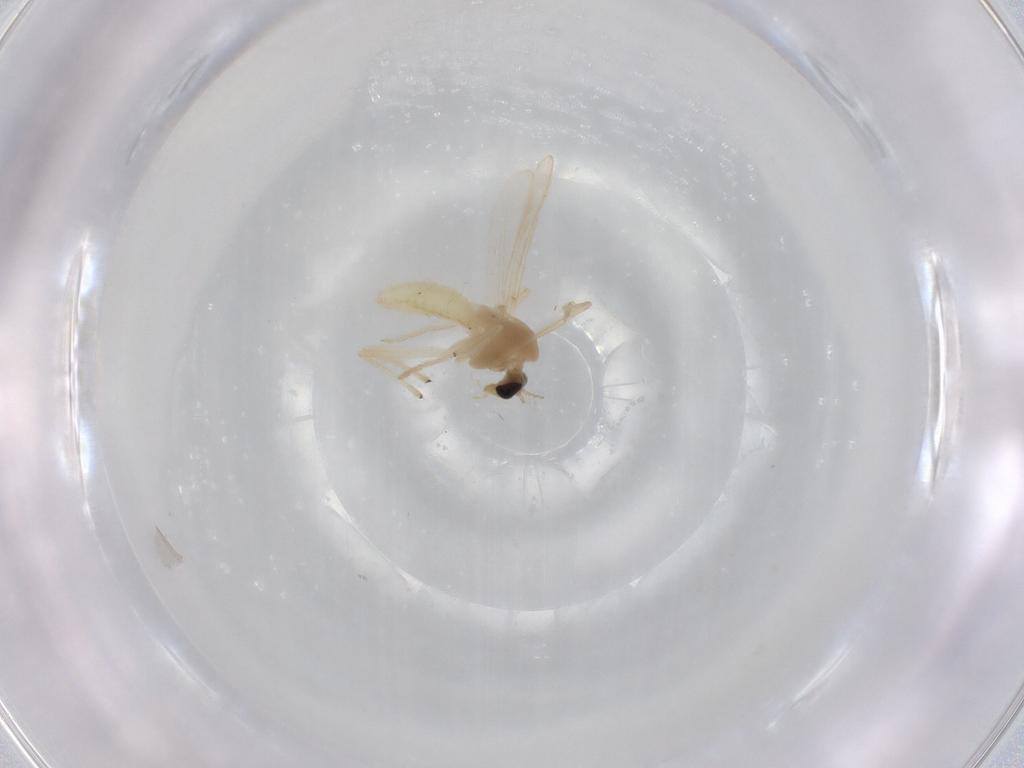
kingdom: Animalia
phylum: Arthropoda
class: Insecta
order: Diptera
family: Chironomidae
